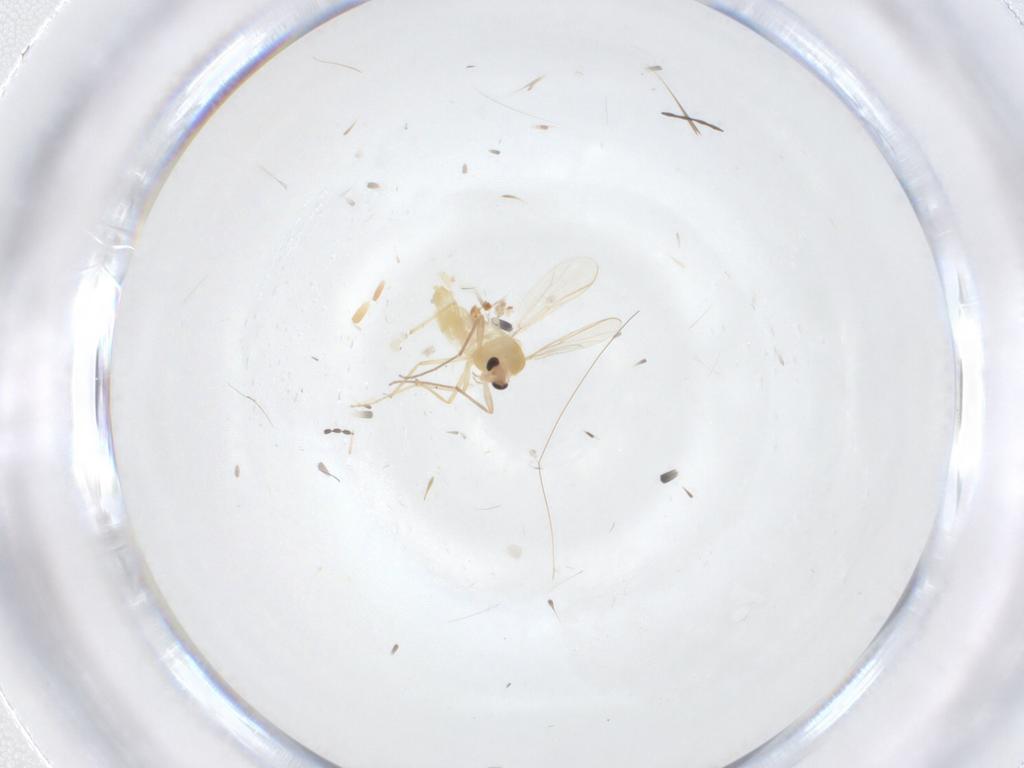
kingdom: Animalia
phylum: Arthropoda
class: Insecta
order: Diptera
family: Chironomidae
